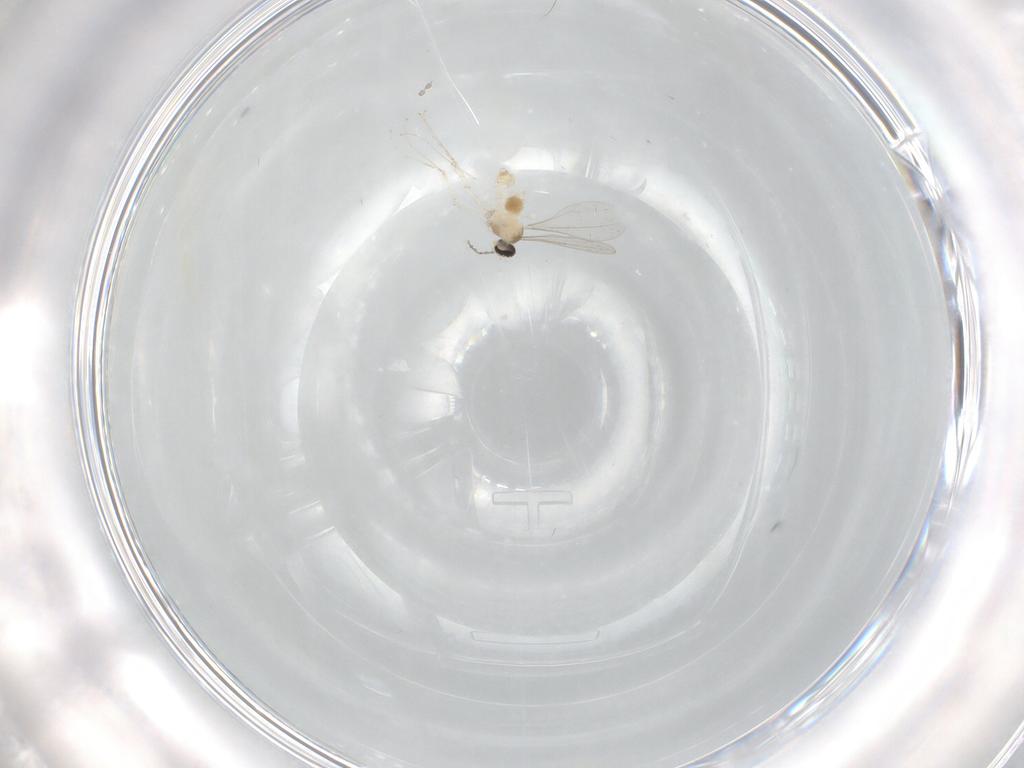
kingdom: Animalia
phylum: Arthropoda
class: Insecta
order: Diptera
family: Cecidomyiidae
